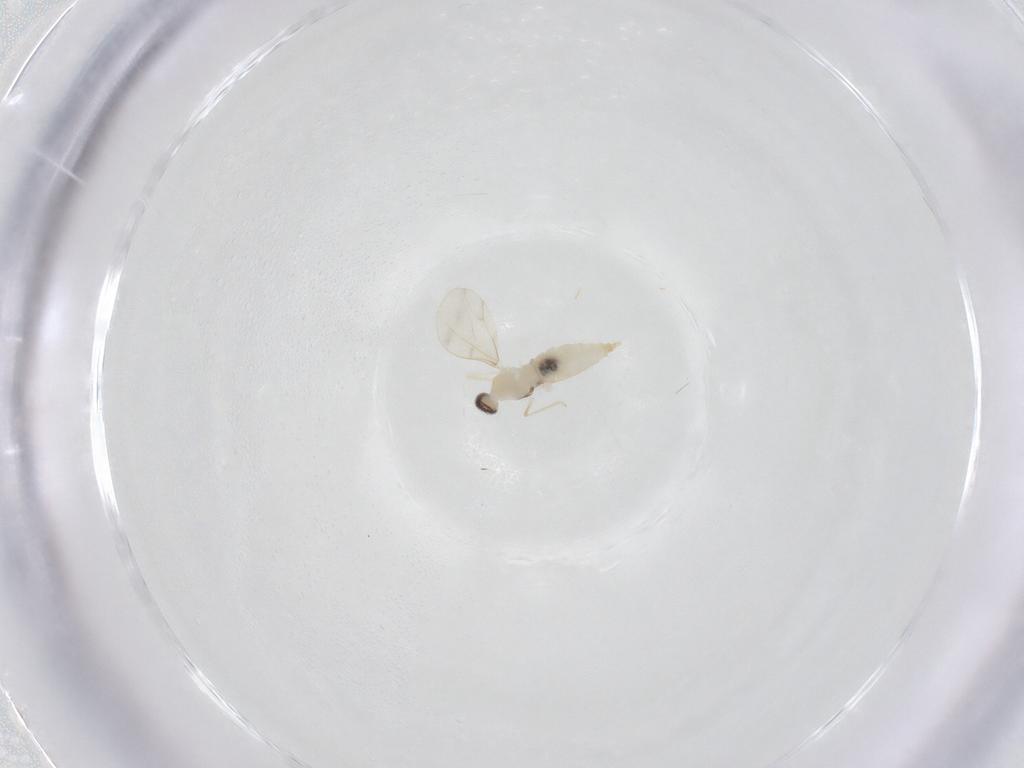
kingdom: Animalia
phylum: Arthropoda
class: Insecta
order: Diptera
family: Cecidomyiidae
